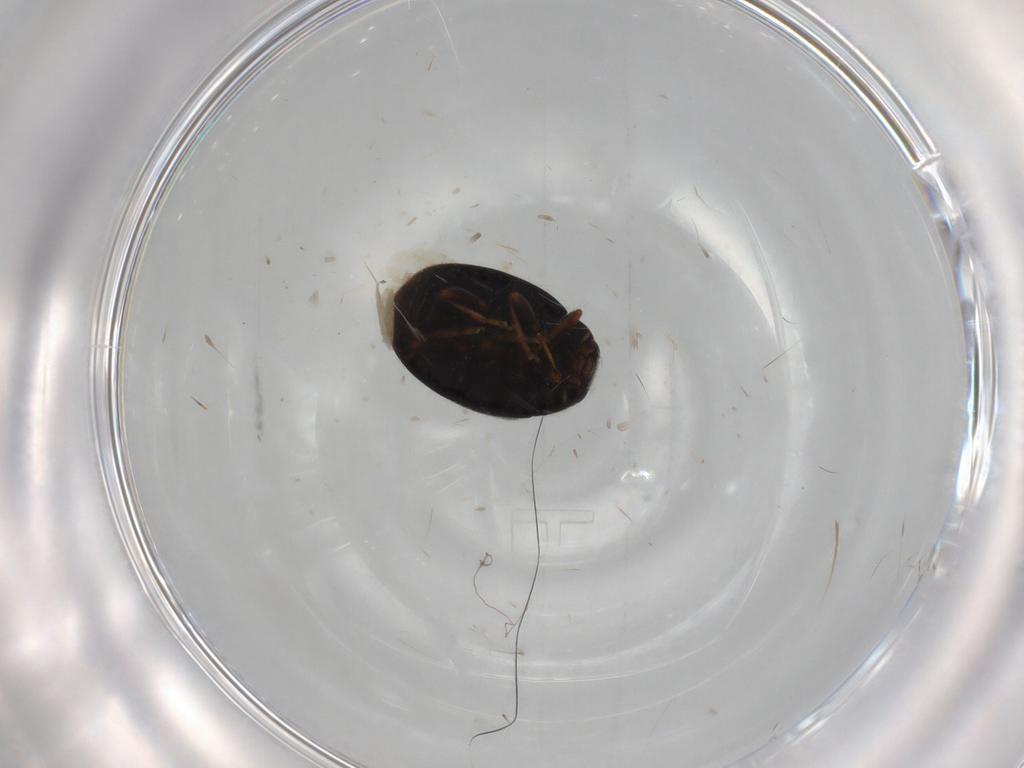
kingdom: Animalia
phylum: Arthropoda
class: Insecta
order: Coleoptera
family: Coccinellidae
